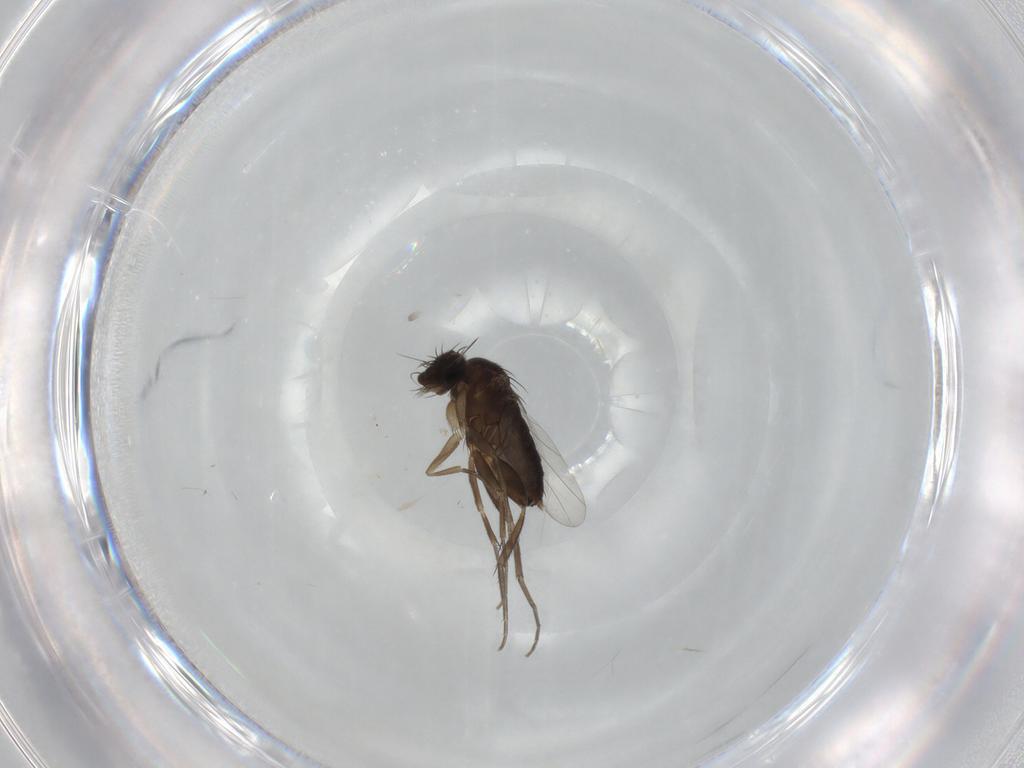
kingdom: Animalia
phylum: Arthropoda
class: Insecta
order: Diptera
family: Phoridae
